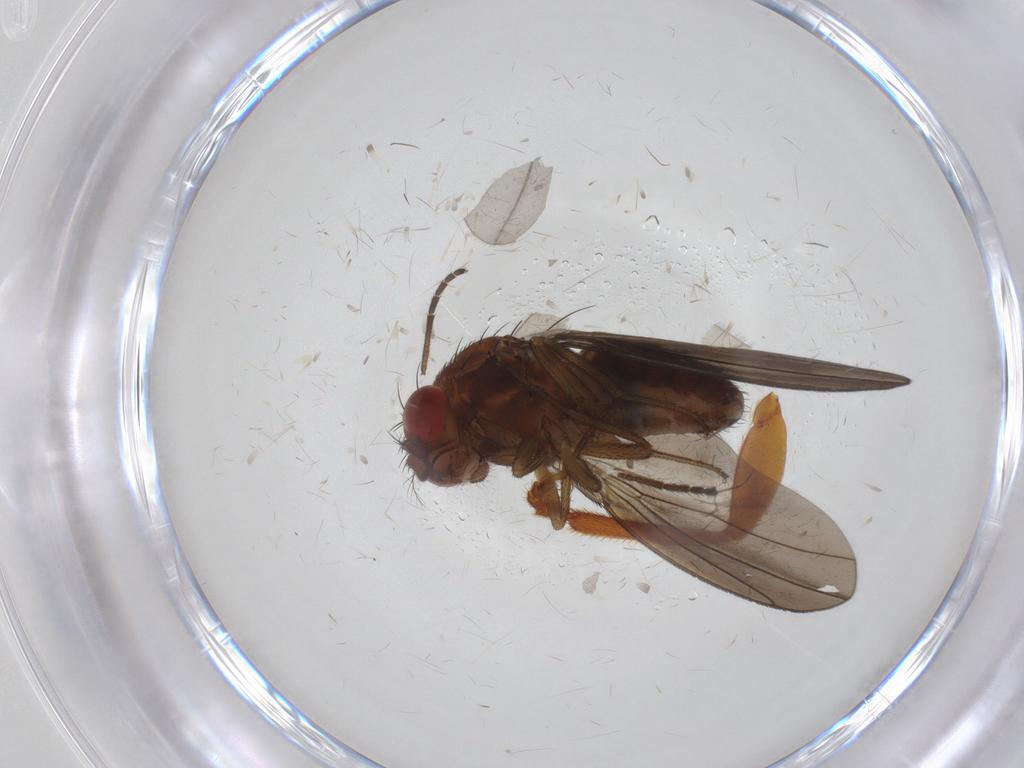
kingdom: Animalia
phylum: Arthropoda
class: Insecta
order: Diptera
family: Drosophilidae
